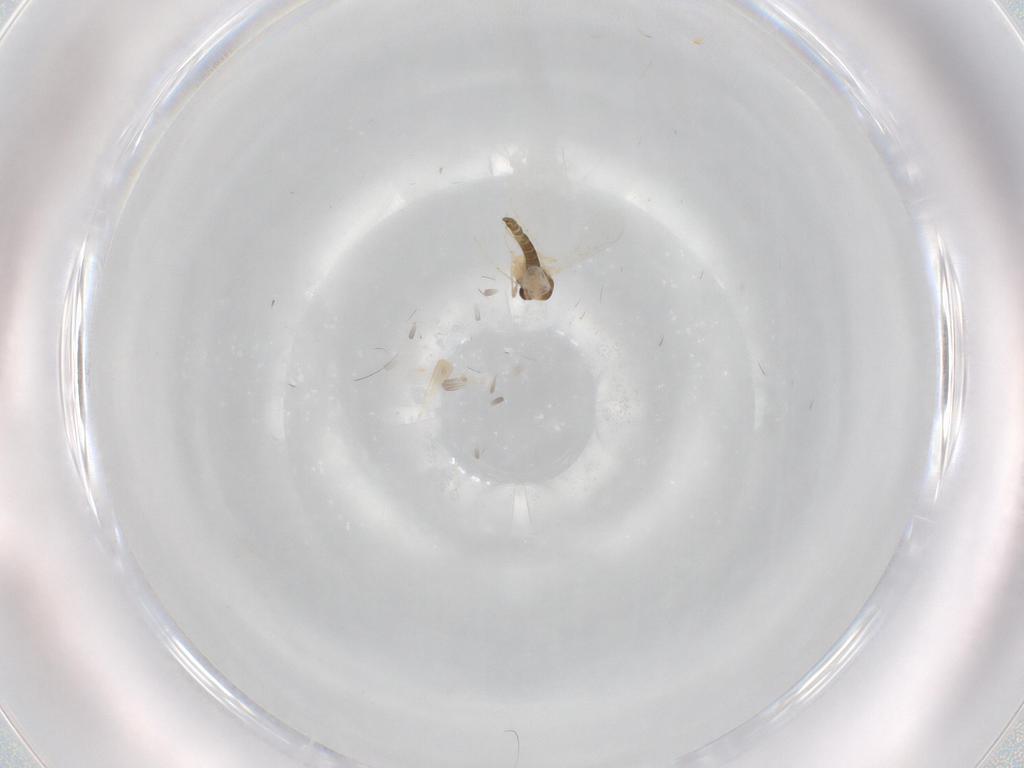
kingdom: Animalia
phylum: Arthropoda
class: Insecta
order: Diptera
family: Chironomidae
